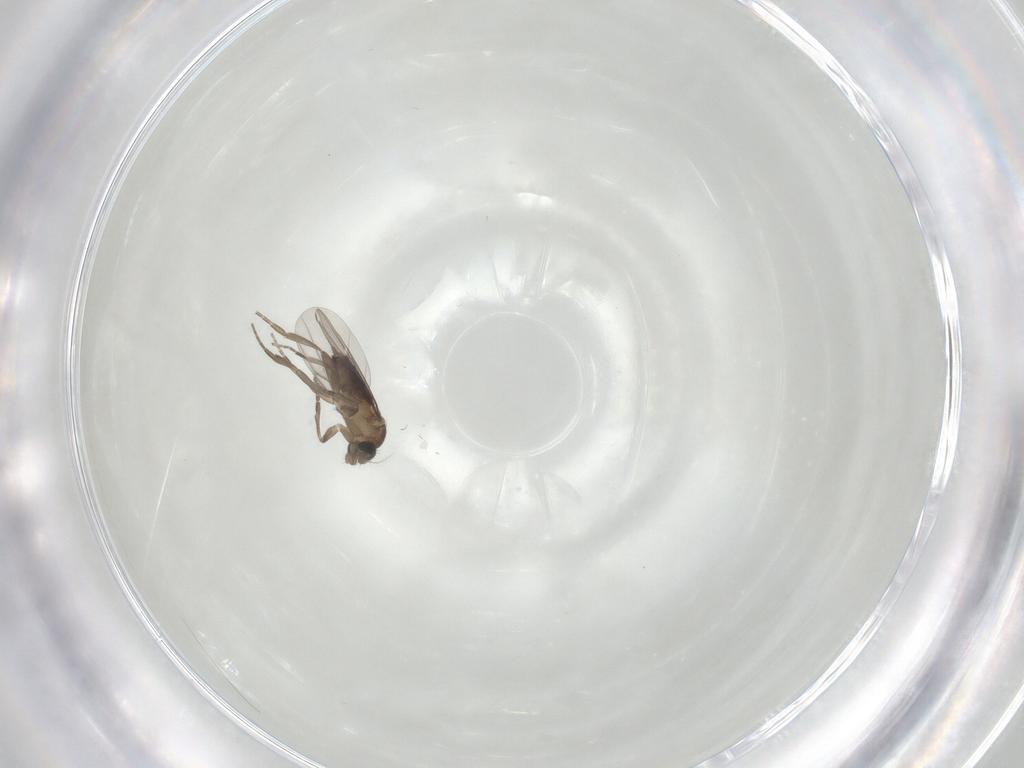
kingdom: Animalia
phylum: Arthropoda
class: Insecta
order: Diptera
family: Phoridae
